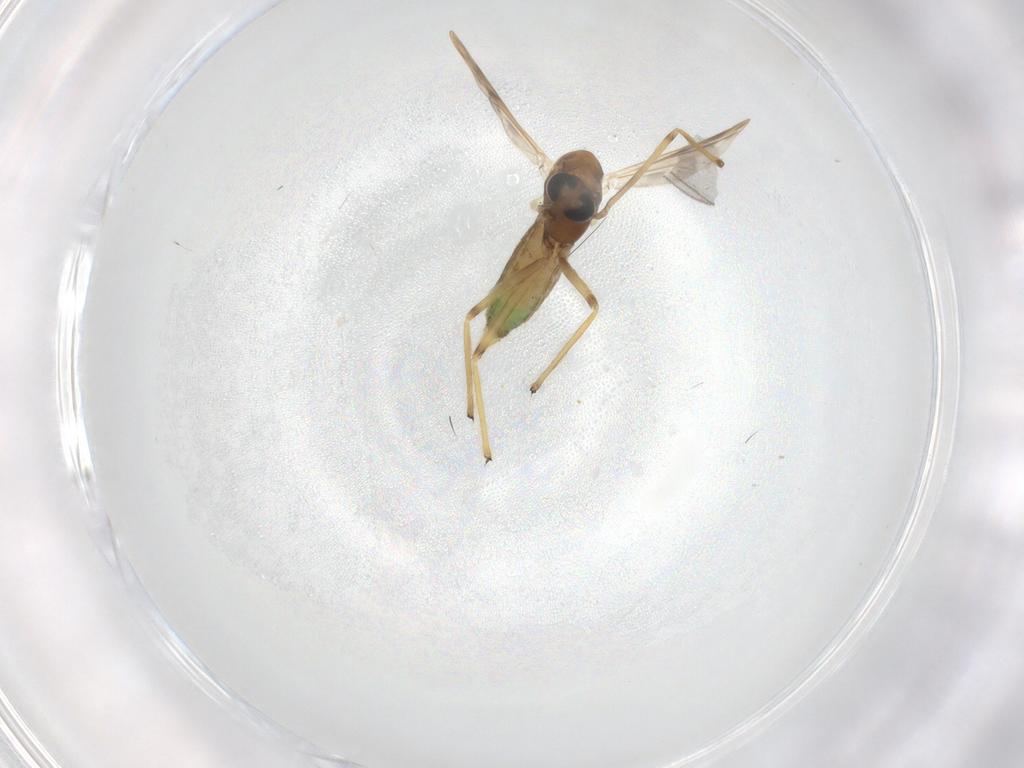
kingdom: Animalia
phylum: Arthropoda
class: Insecta
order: Diptera
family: Chironomidae
